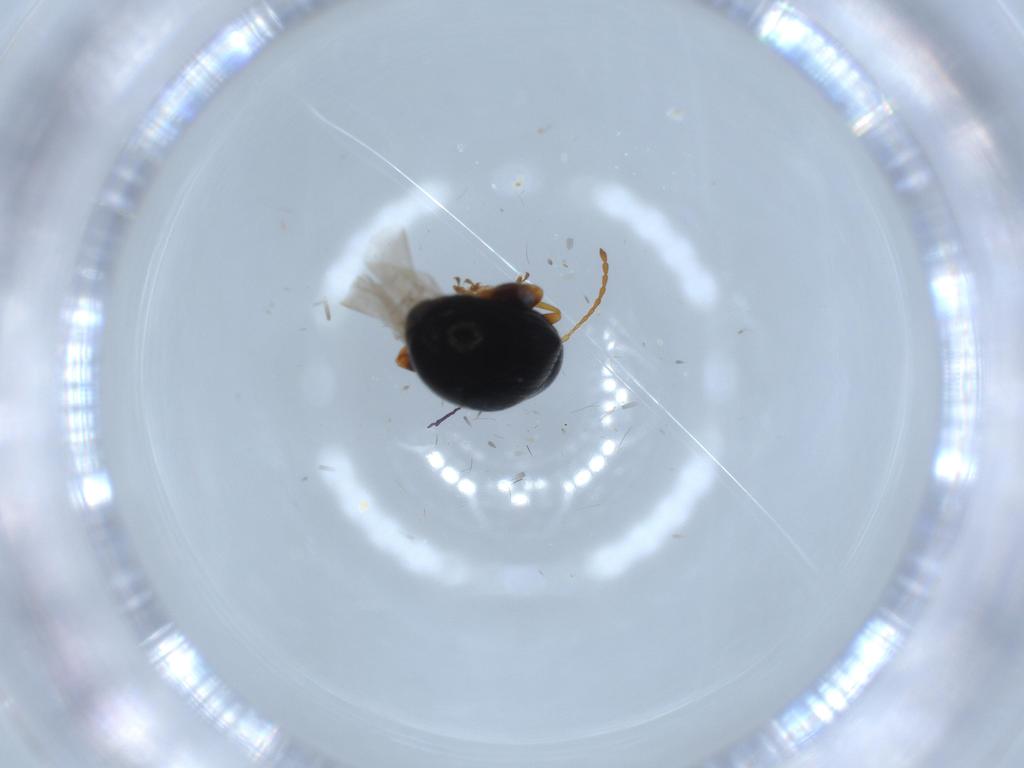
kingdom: Animalia
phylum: Arthropoda
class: Insecta
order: Coleoptera
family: Chrysomelidae
